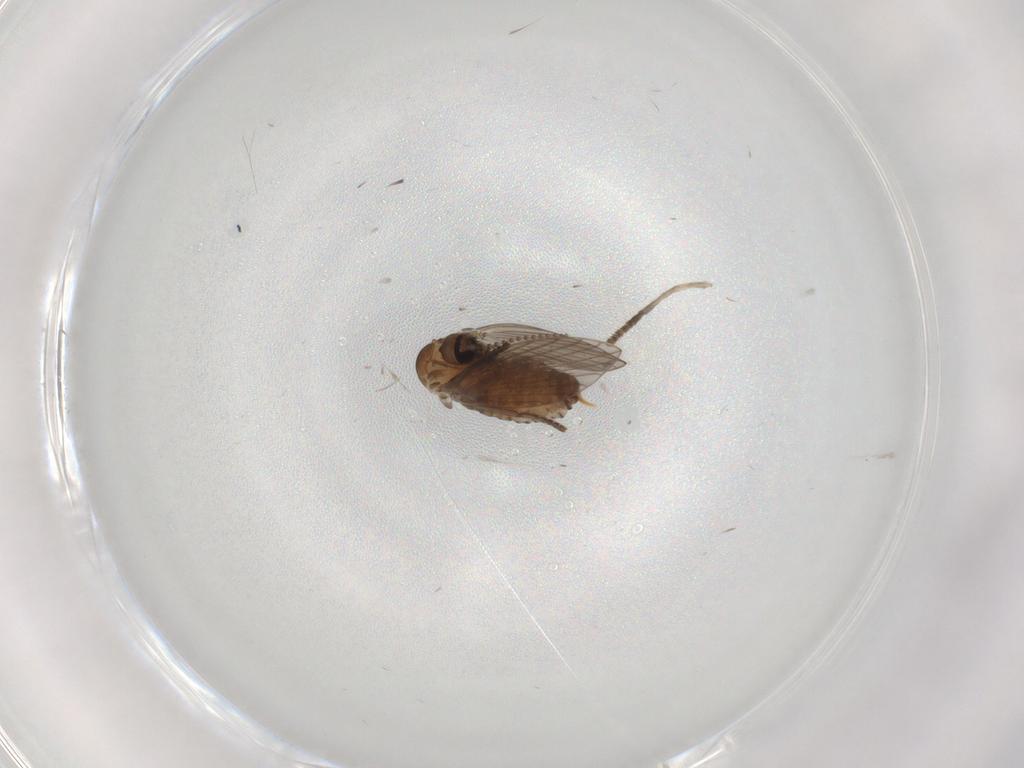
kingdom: Animalia
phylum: Arthropoda
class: Insecta
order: Diptera
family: Psychodidae
